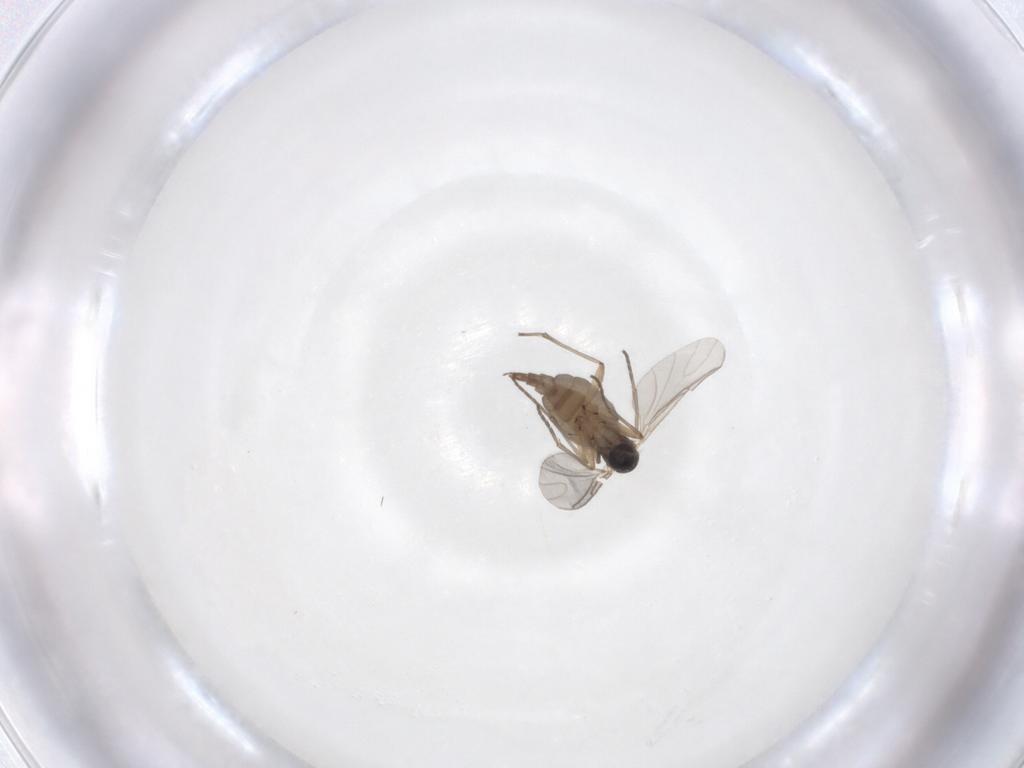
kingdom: Animalia
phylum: Arthropoda
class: Insecta
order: Diptera
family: Sciaridae
